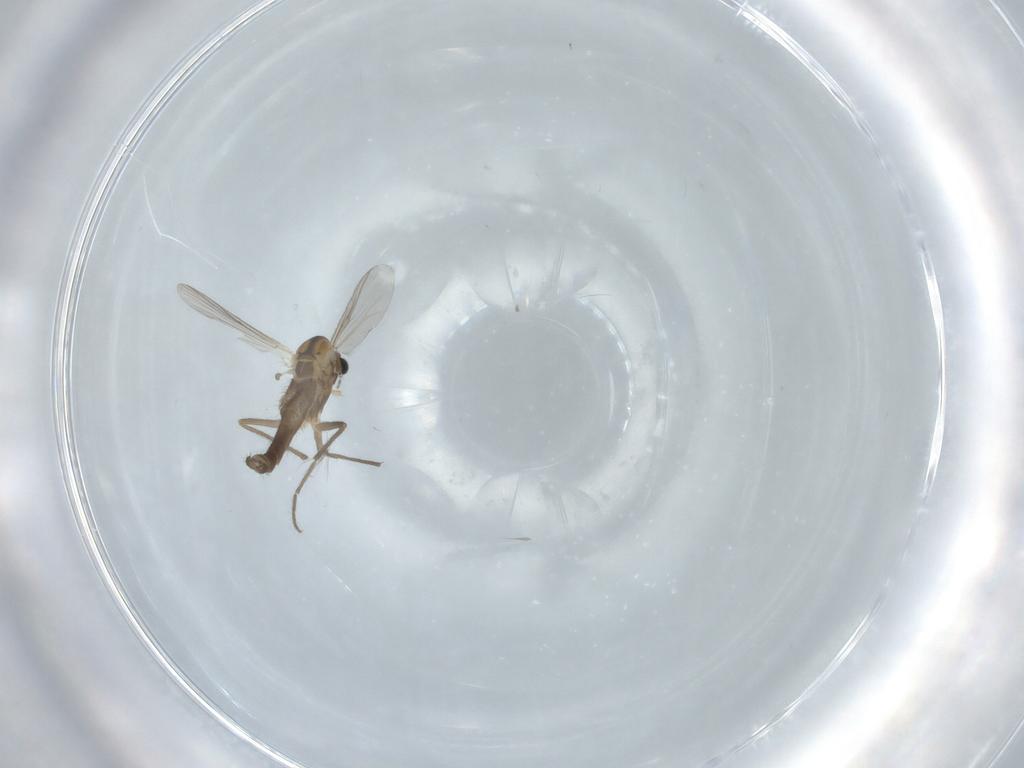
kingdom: Animalia
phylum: Arthropoda
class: Insecta
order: Diptera
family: Chironomidae
